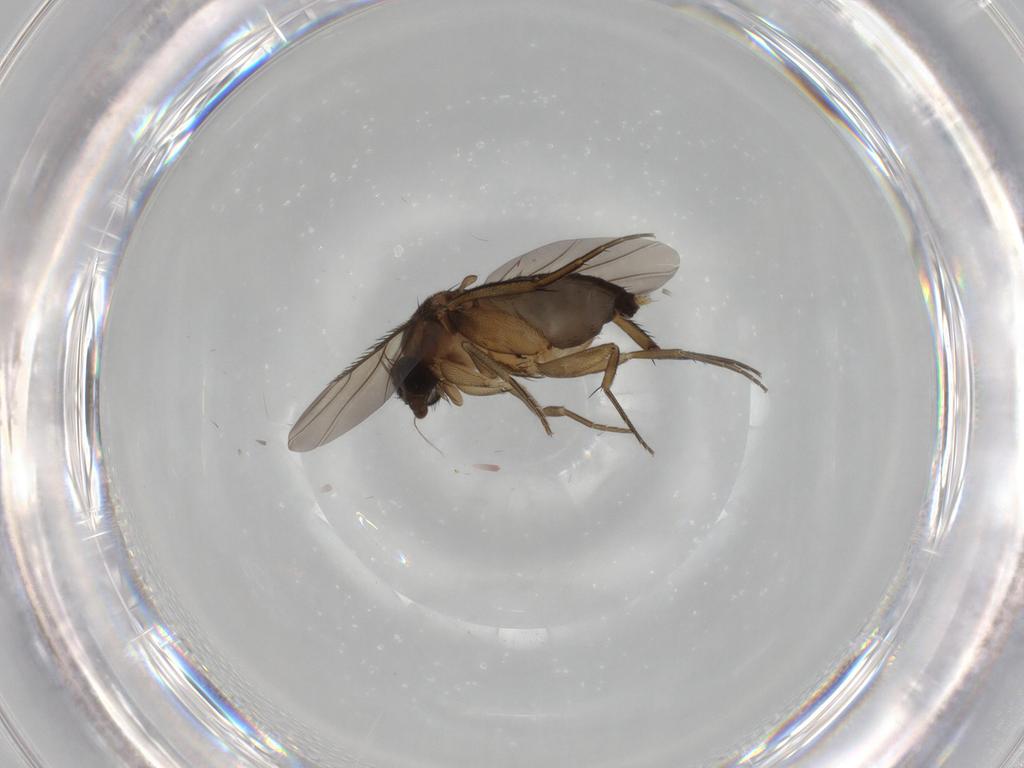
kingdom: Animalia
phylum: Arthropoda
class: Insecta
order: Diptera
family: Phoridae
